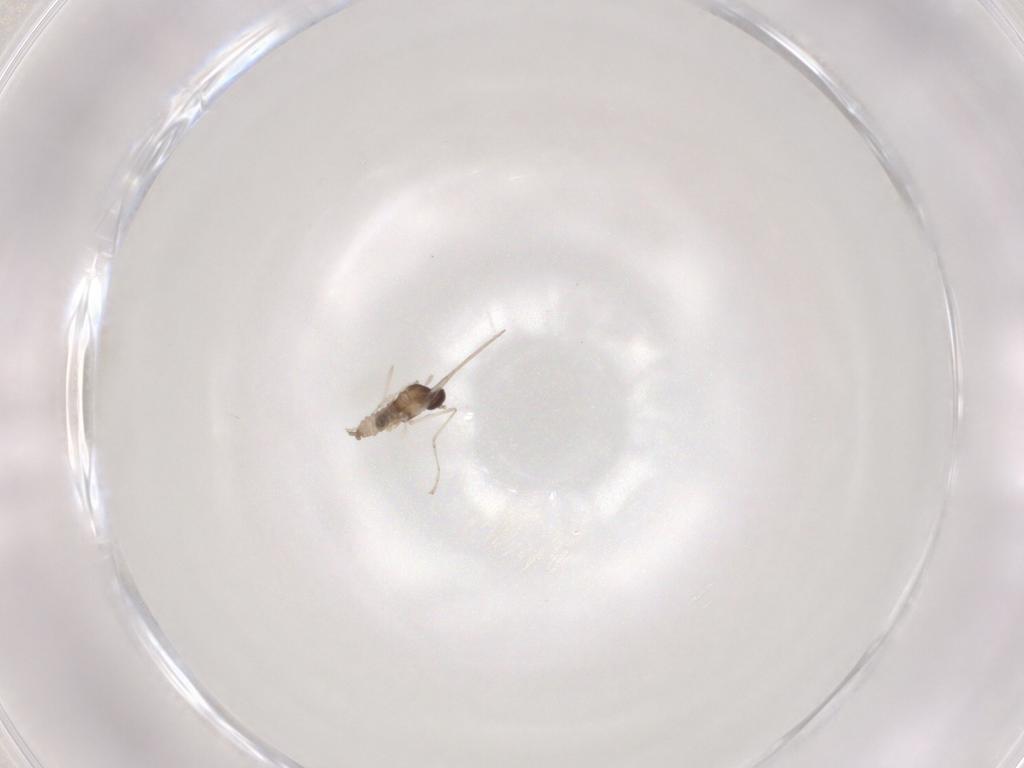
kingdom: Animalia
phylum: Arthropoda
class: Insecta
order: Diptera
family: Cecidomyiidae
